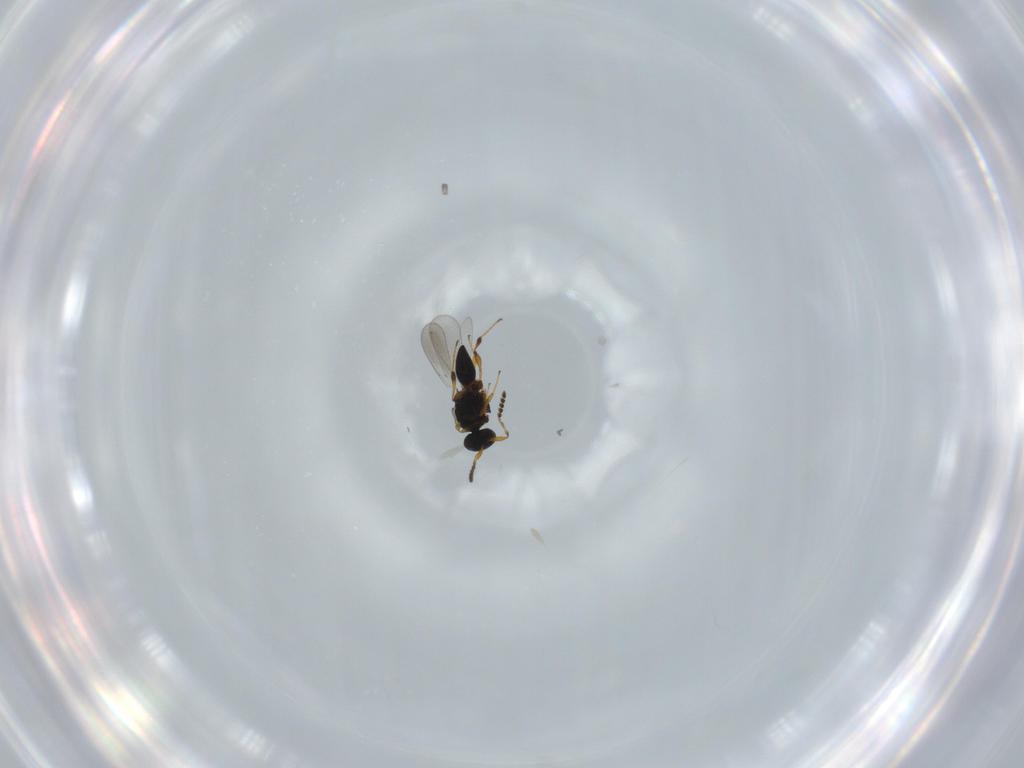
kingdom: Animalia
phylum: Arthropoda
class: Insecta
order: Hymenoptera
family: Platygastridae
